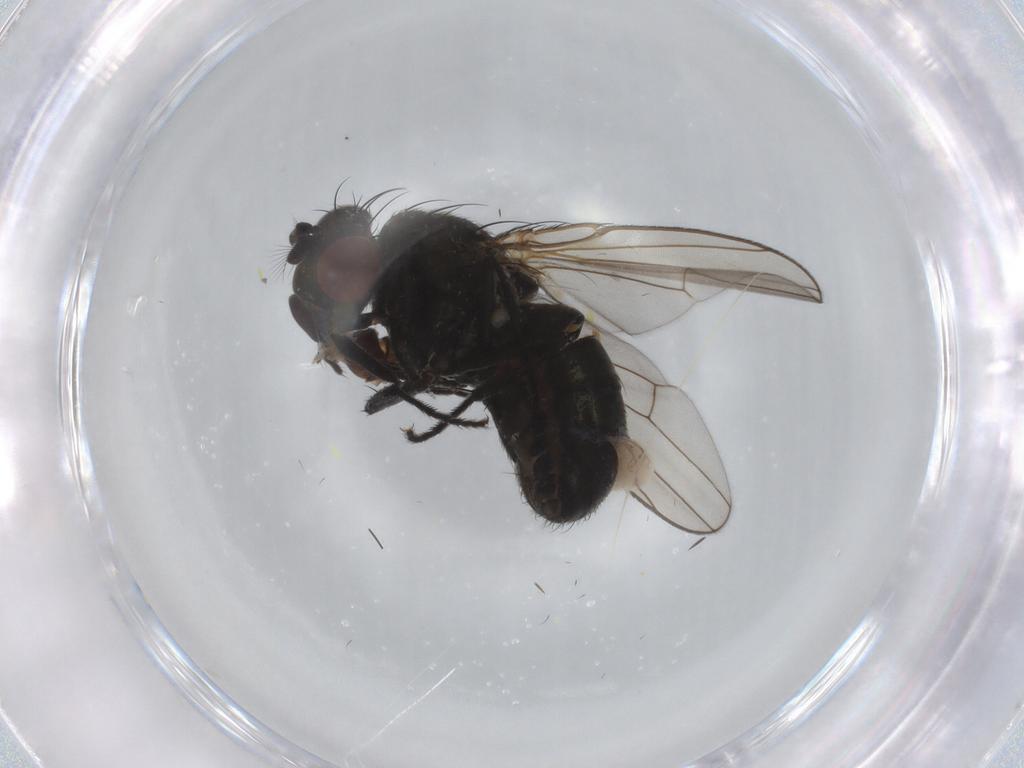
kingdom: Animalia
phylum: Arthropoda
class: Insecta
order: Diptera
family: Ephydridae
